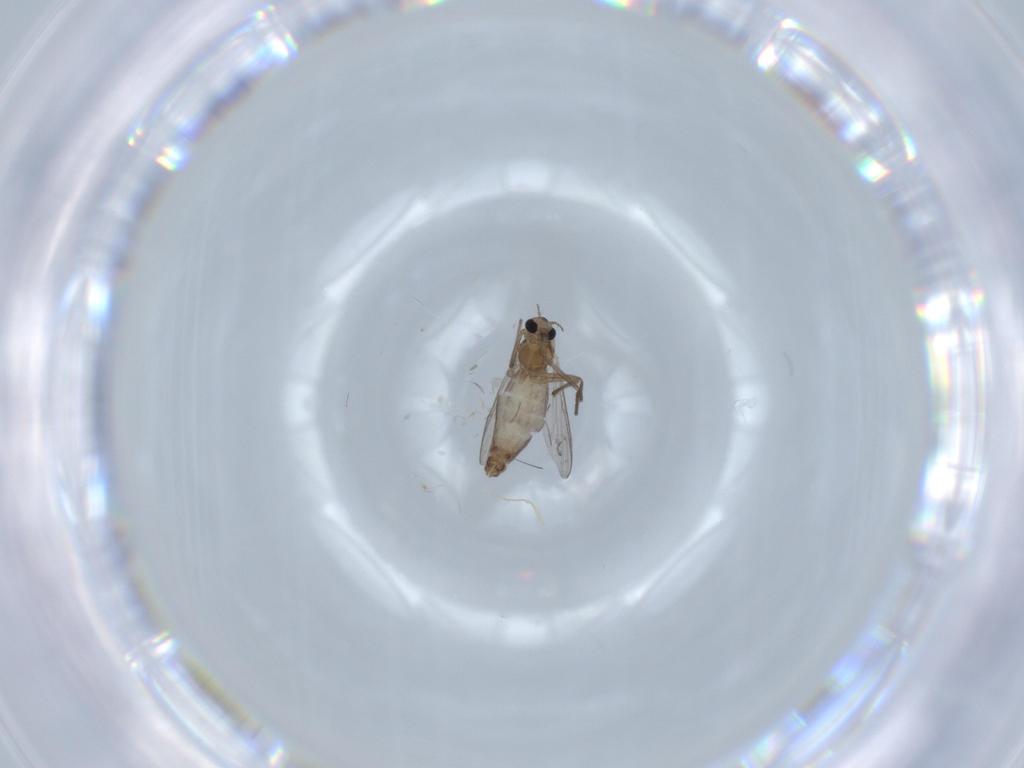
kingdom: Animalia
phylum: Arthropoda
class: Insecta
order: Diptera
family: Chironomidae
